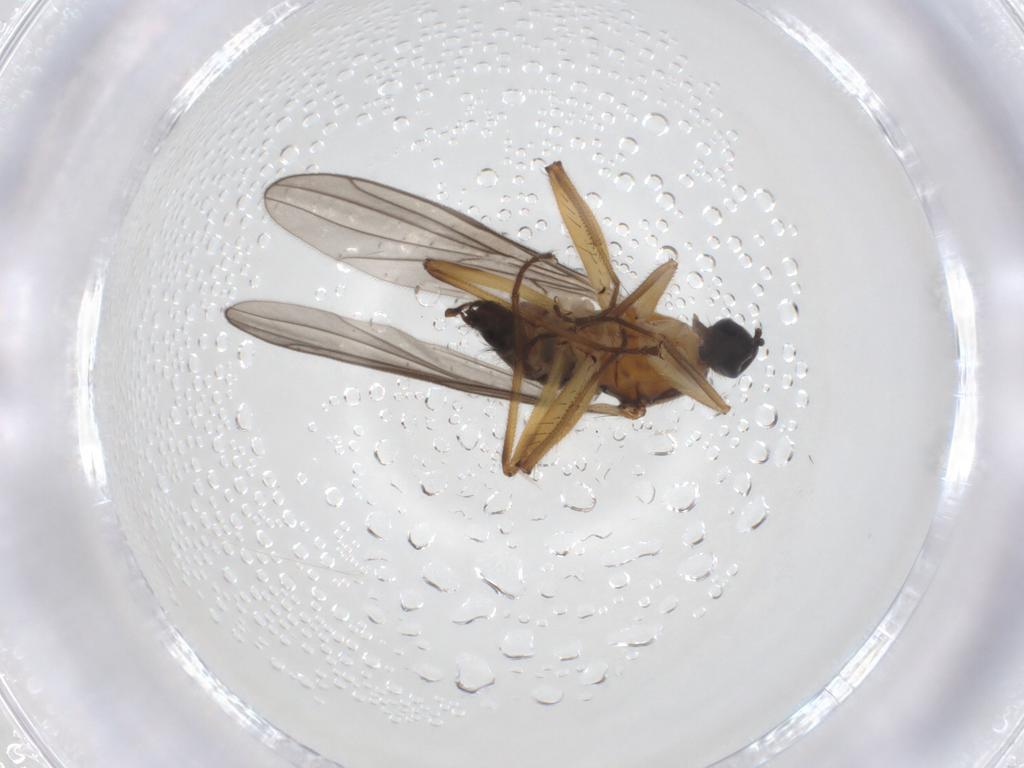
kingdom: Animalia
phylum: Arthropoda
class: Insecta
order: Diptera
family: Hybotidae
